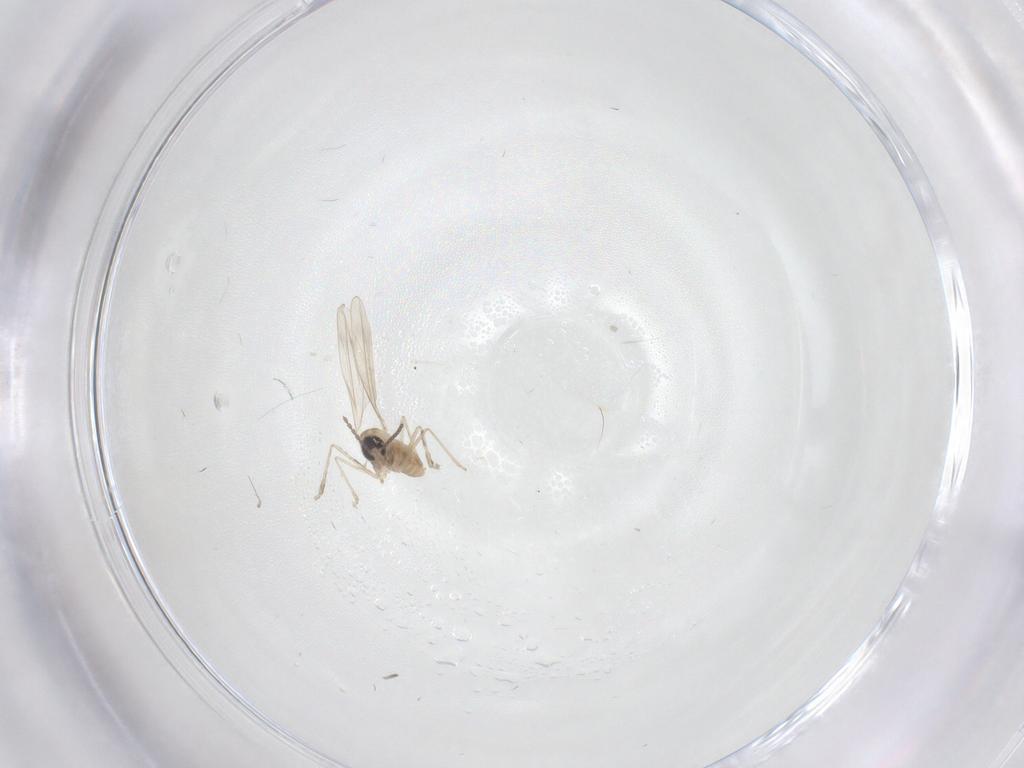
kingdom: Animalia
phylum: Arthropoda
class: Insecta
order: Diptera
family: Cecidomyiidae
